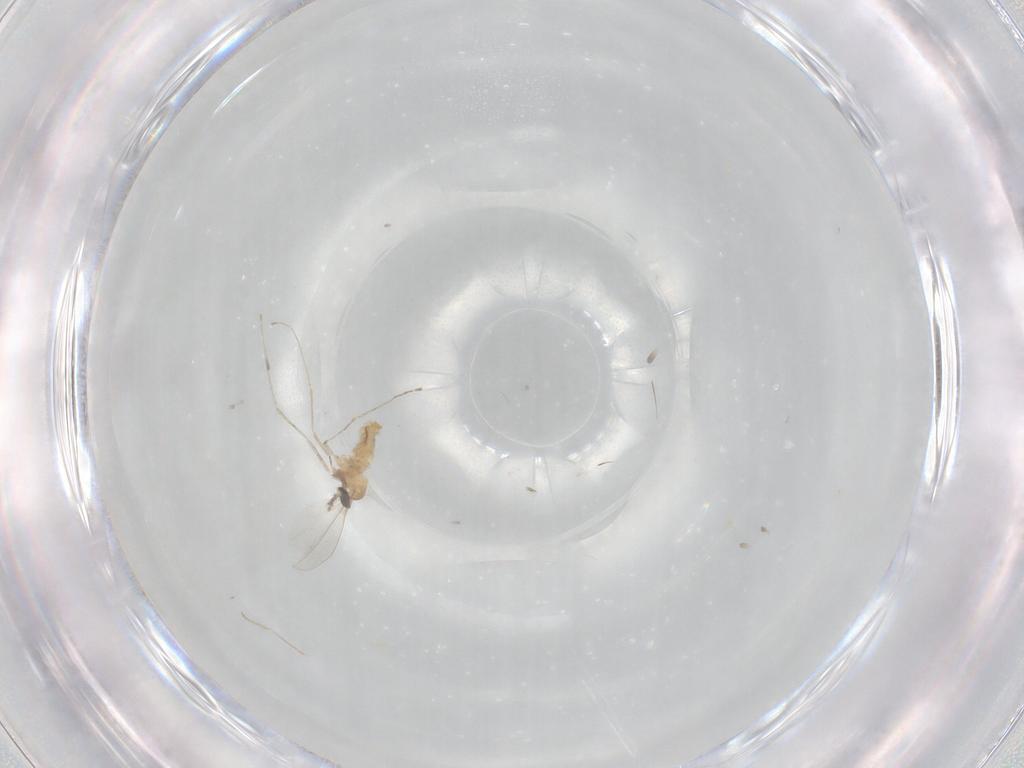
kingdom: Animalia
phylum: Arthropoda
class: Insecta
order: Diptera
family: Cecidomyiidae
